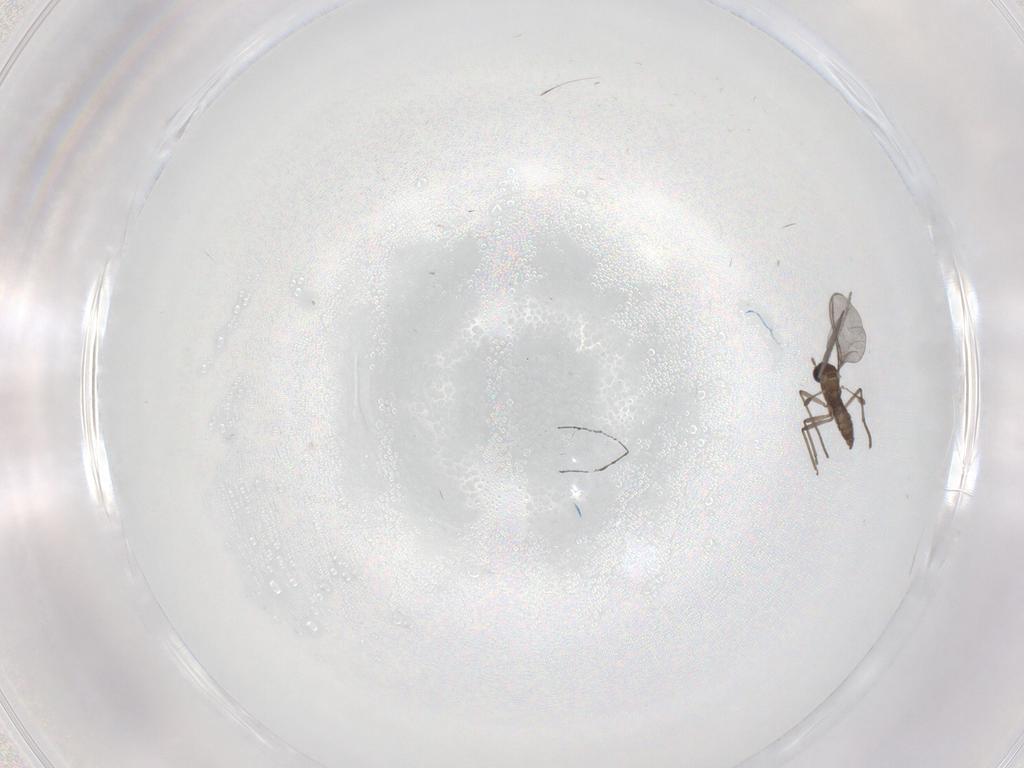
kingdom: Animalia
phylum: Arthropoda
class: Insecta
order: Diptera
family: Sciaridae
